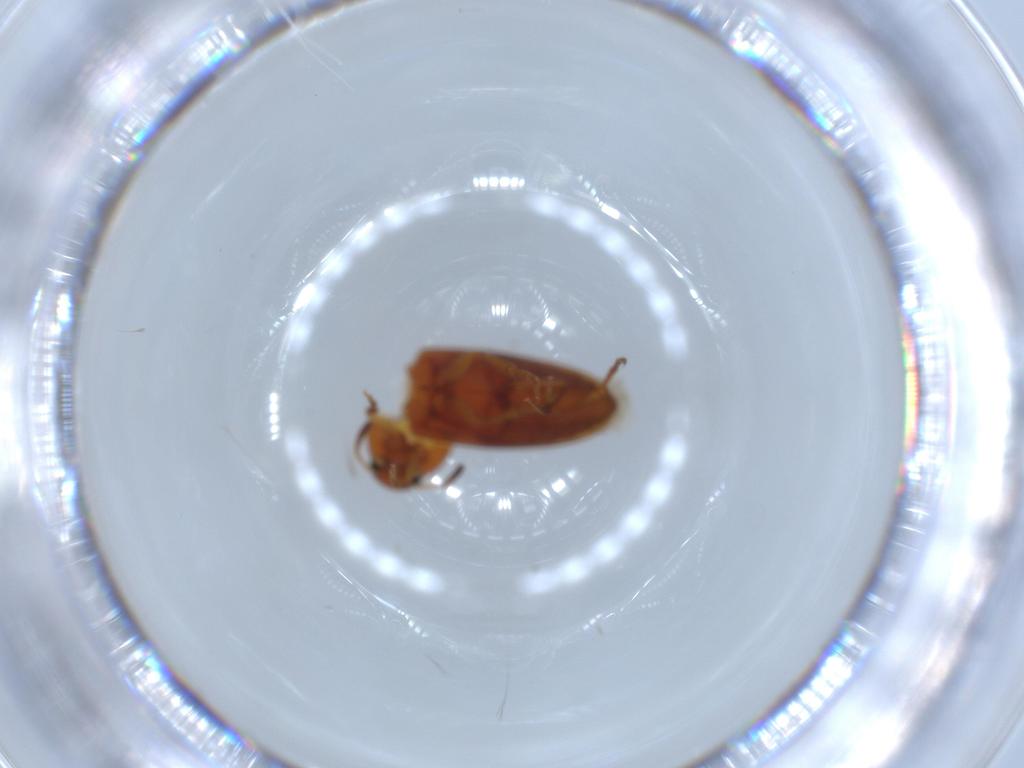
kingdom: Animalia
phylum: Arthropoda
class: Insecta
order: Coleoptera
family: Scraptiidae
